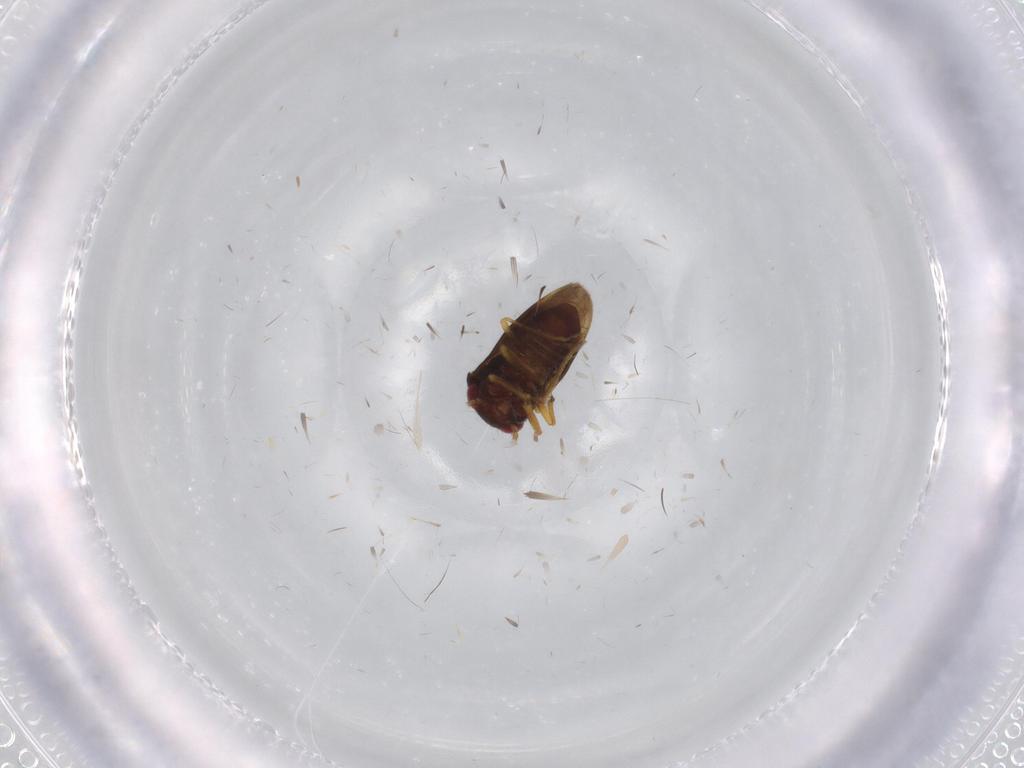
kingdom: Animalia
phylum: Arthropoda
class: Insecta
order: Hemiptera
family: Schizopteridae
